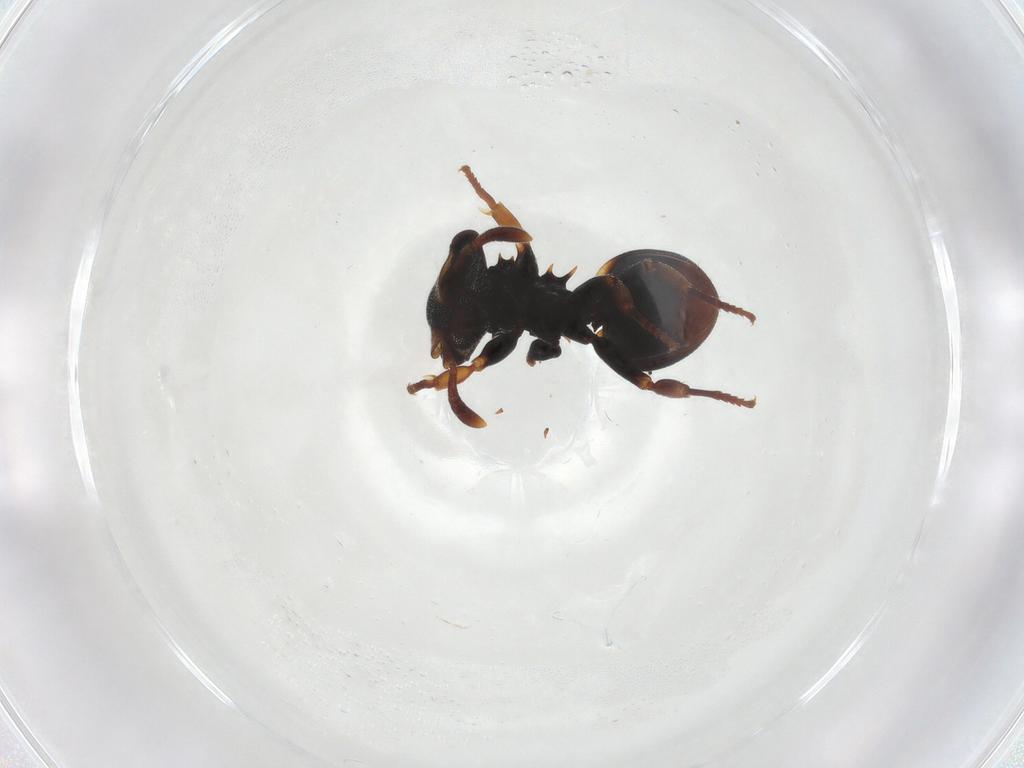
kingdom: Animalia
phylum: Arthropoda
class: Insecta
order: Hymenoptera
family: Formicidae
